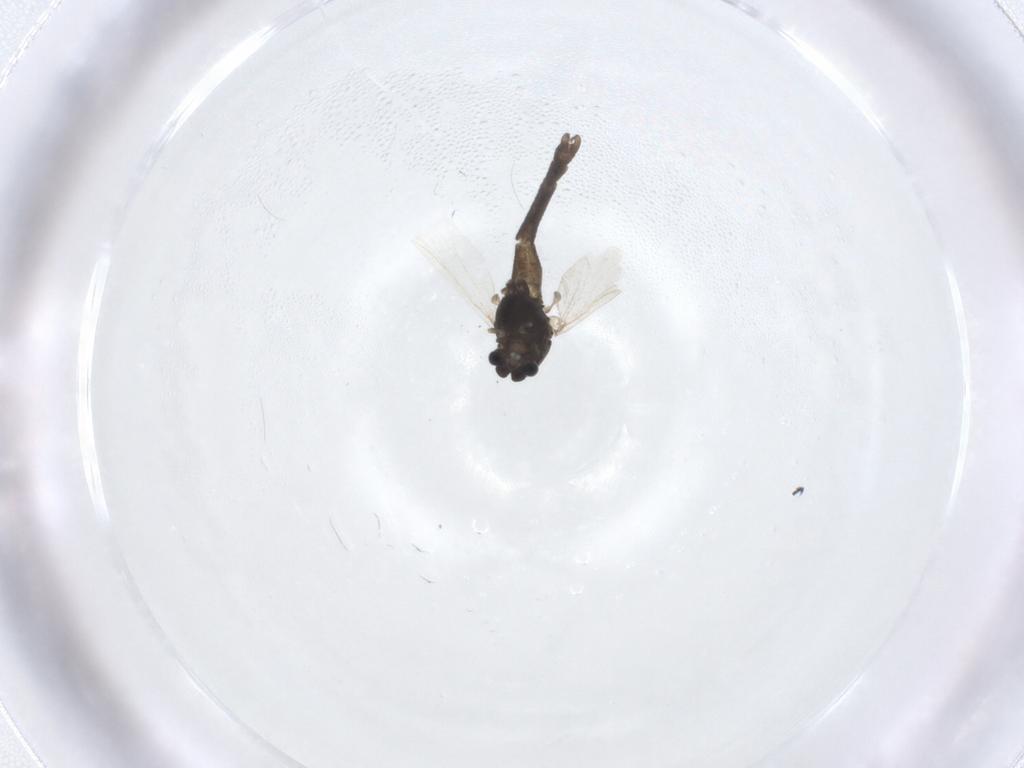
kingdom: Animalia
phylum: Arthropoda
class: Insecta
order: Diptera
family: Chironomidae
